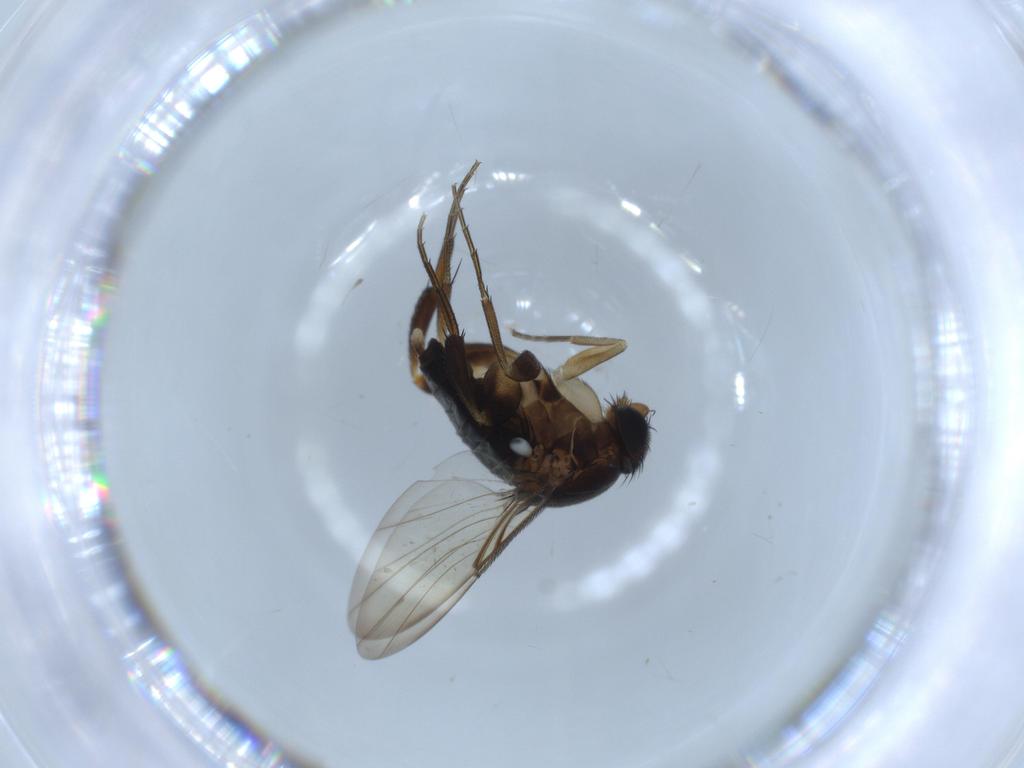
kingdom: Animalia
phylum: Arthropoda
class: Insecta
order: Diptera
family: Phoridae
